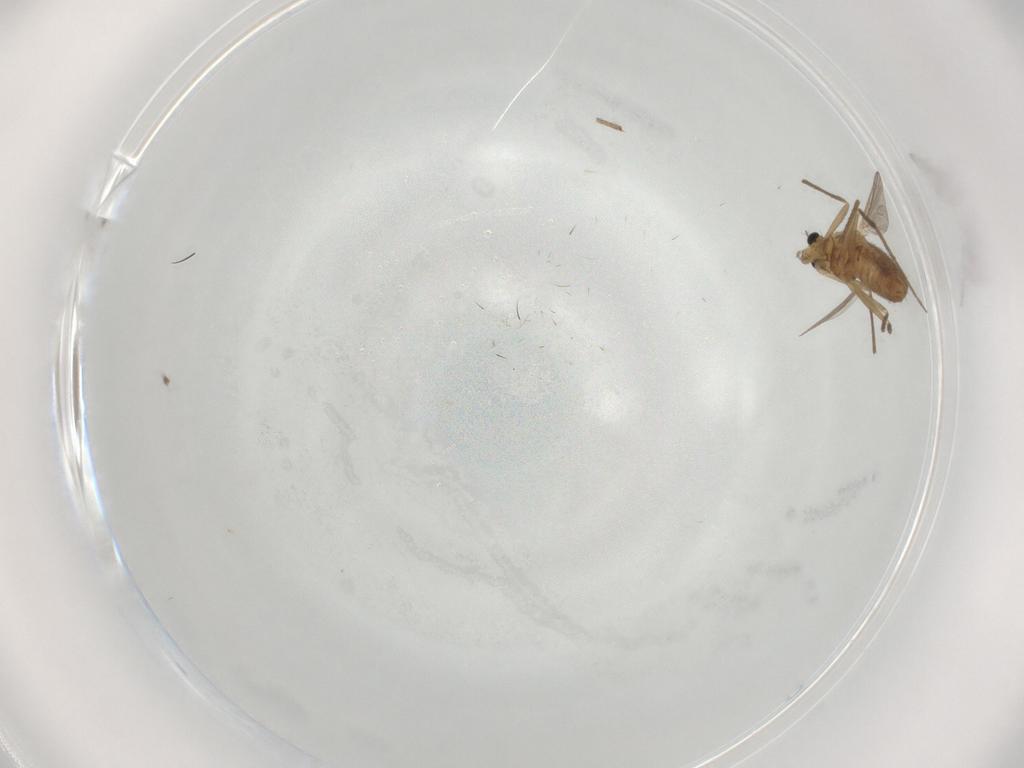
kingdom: Animalia
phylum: Arthropoda
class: Insecta
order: Diptera
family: Chironomidae
